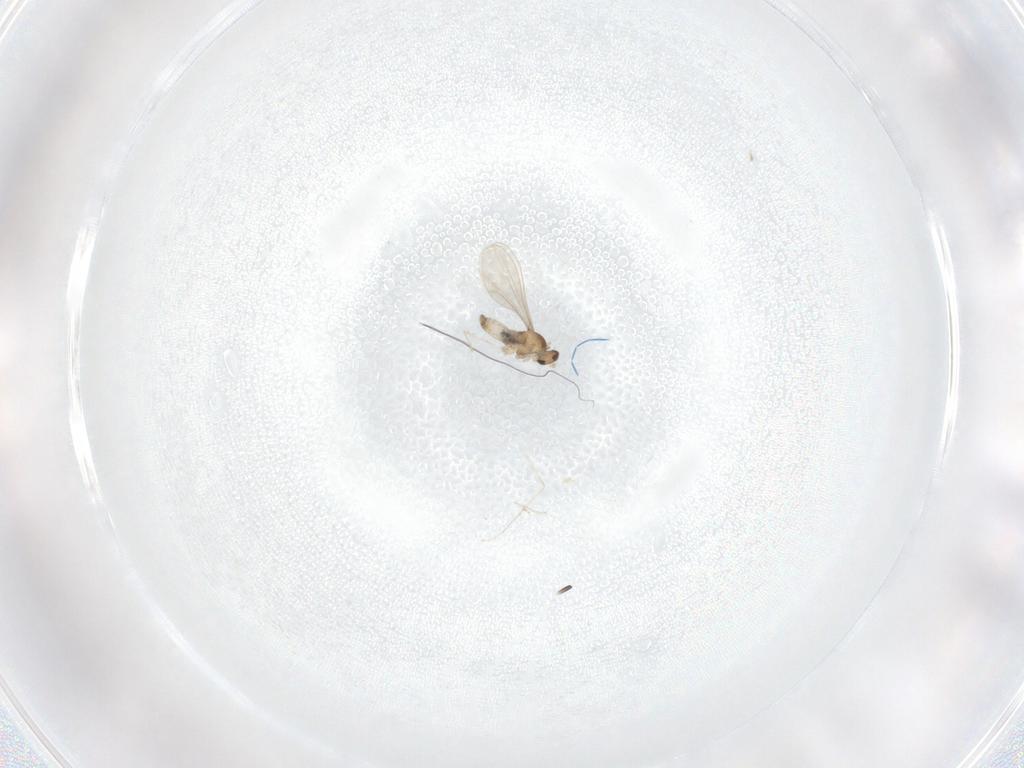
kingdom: Animalia
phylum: Arthropoda
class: Insecta
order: Diptera
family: Cecidomyiidae
